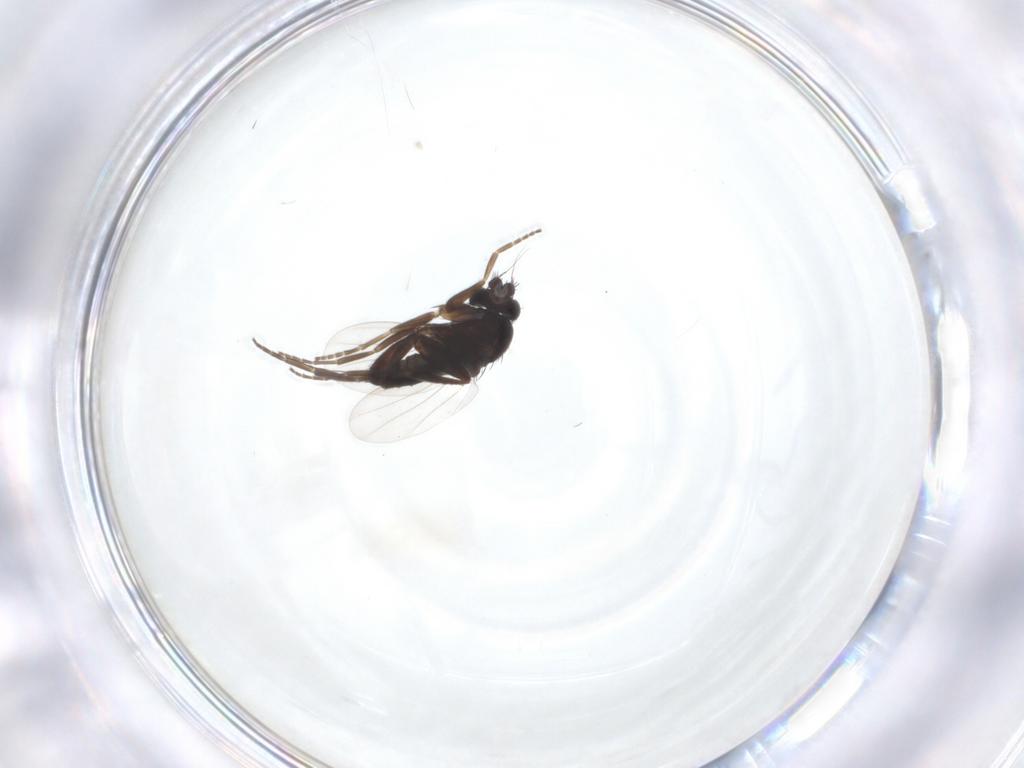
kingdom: Animalia
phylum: Arthropoda
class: Insecta
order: Diptera
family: Phoridae
